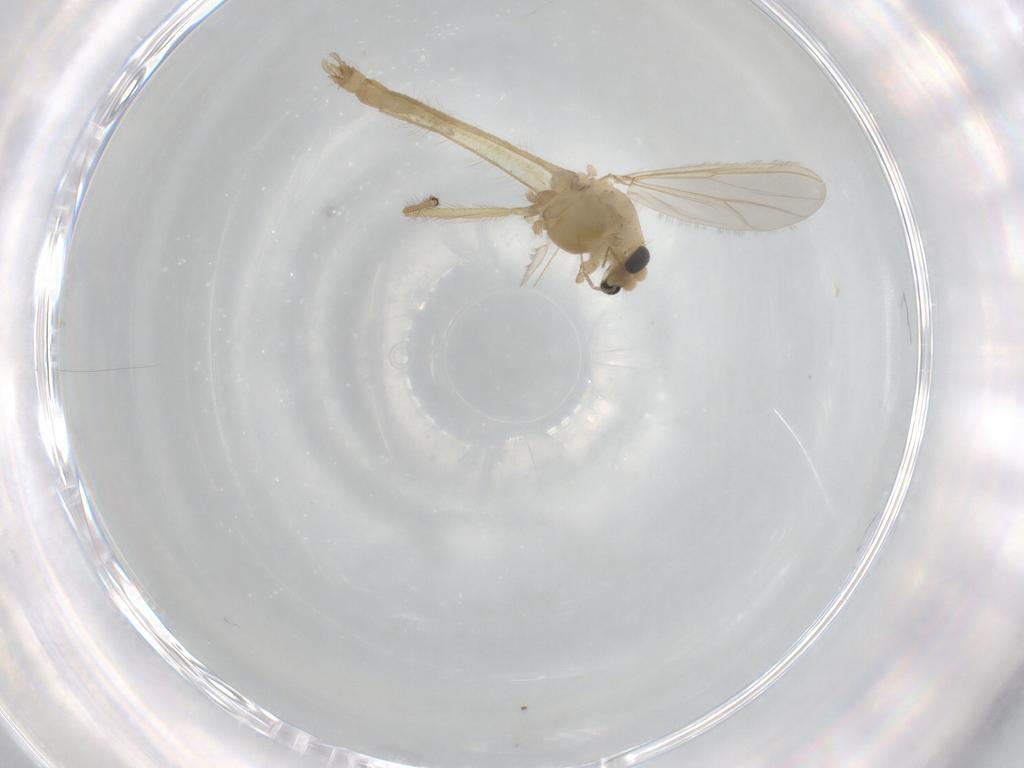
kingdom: Animalia
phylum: Arthropoda
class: Insecta
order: Diptera
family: Chironomidae
